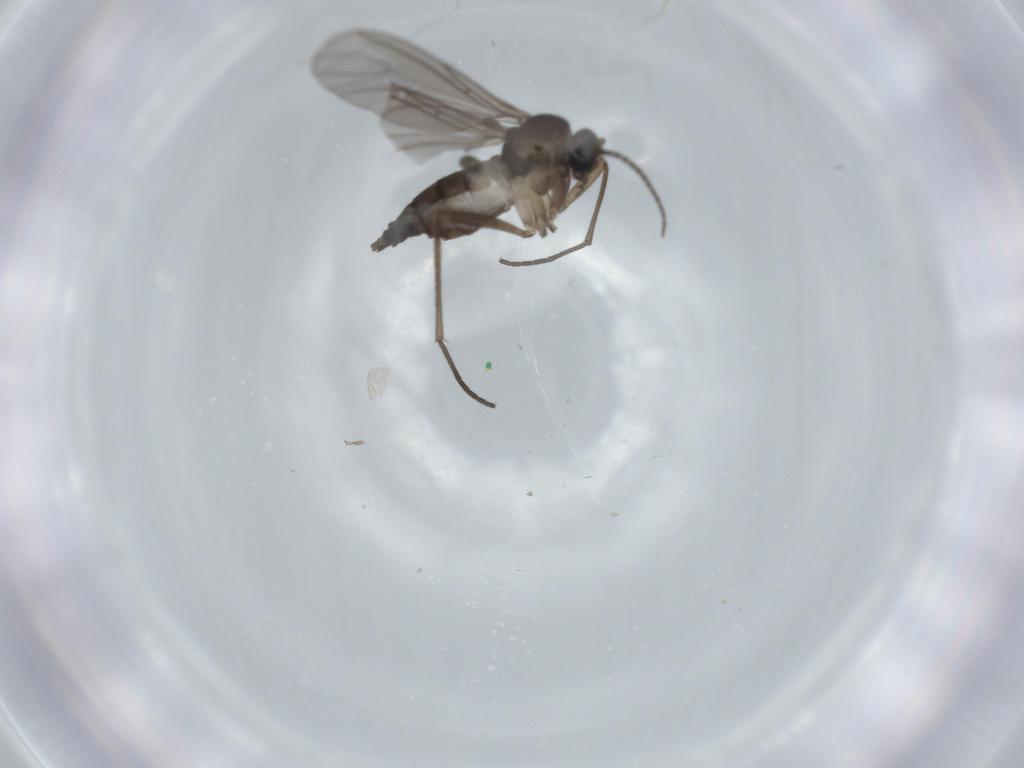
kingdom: Animalia
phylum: Arthropoda
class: Insecta
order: Diptera
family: Sciaridae
